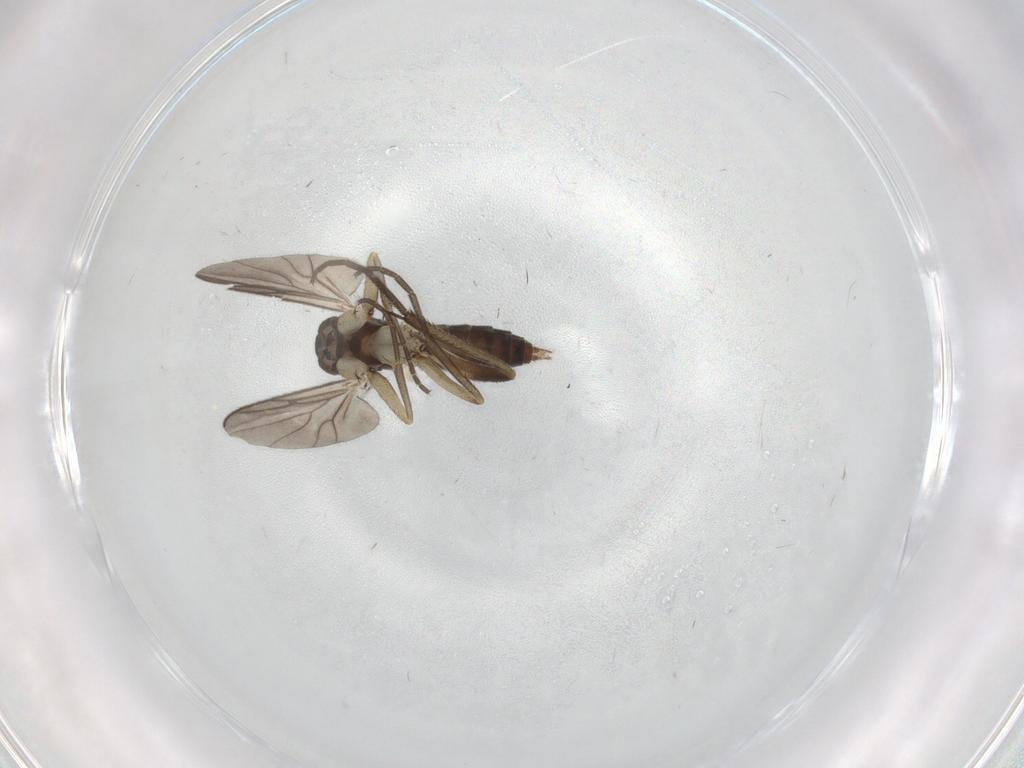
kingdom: Animalia
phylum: Arthropoda
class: Insecta
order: Diptera
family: Mycetophilidae
